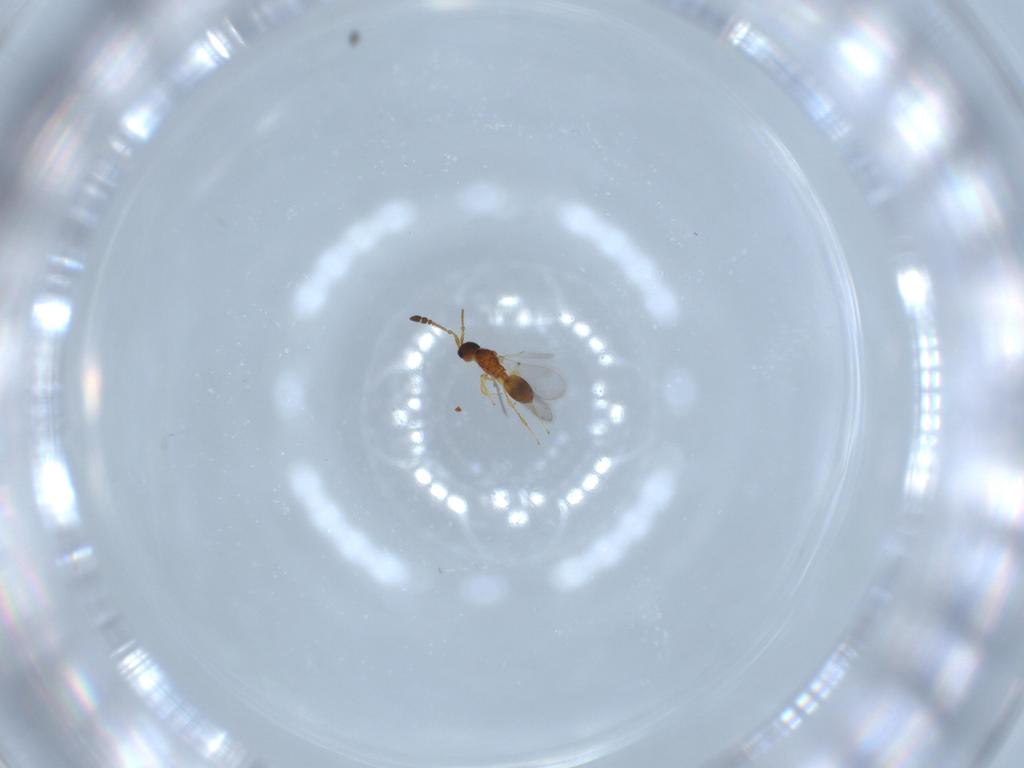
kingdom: Animalia
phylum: Arthropoda
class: Insecta
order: Hymenoptera
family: Diapriidae
